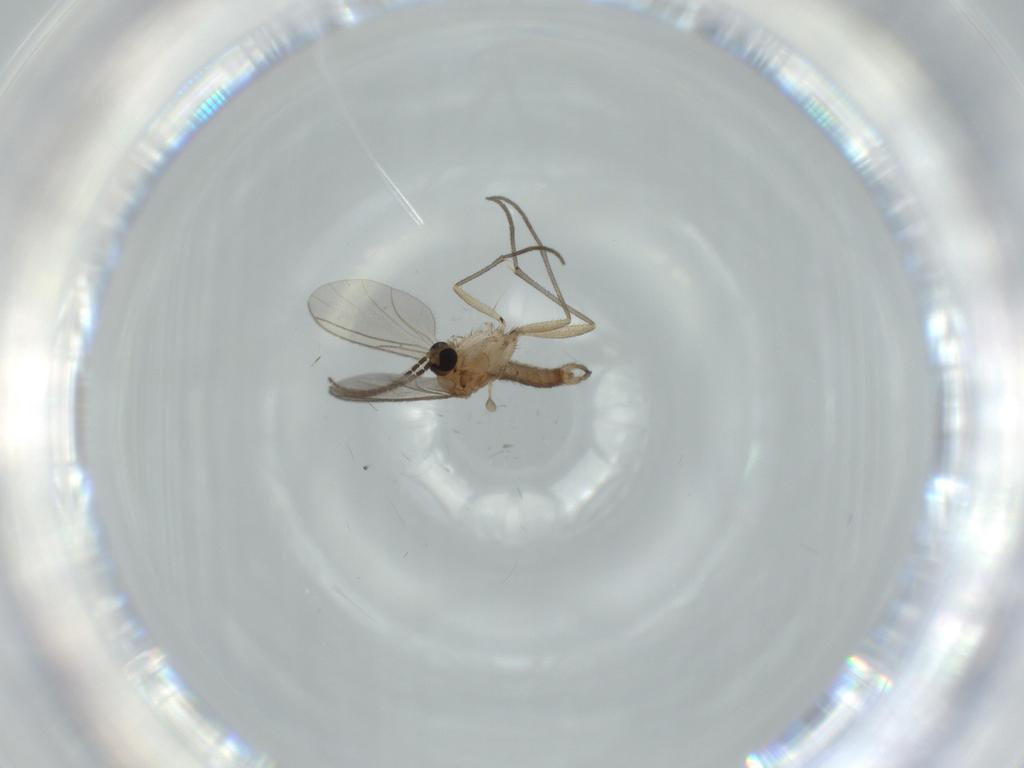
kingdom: Animalia
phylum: Arthropoda
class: Insecta
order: Diptera
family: Sciaridae
